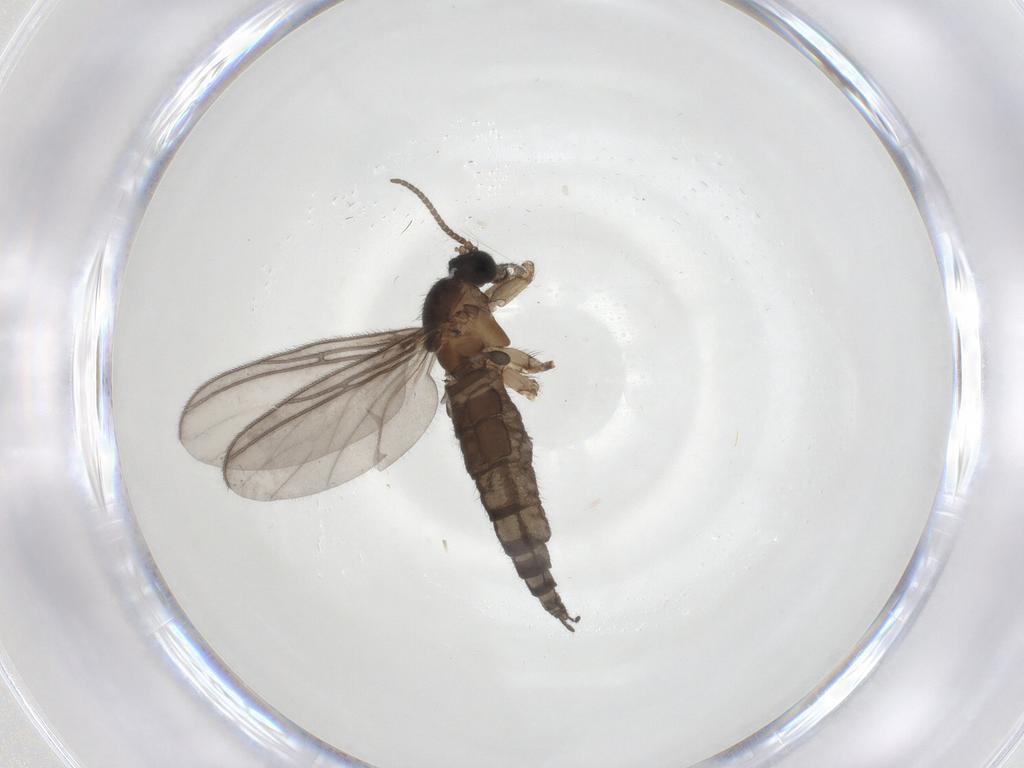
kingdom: Animalia
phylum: Arthropoda
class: Insecta
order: Diptera
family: Sciaridae
